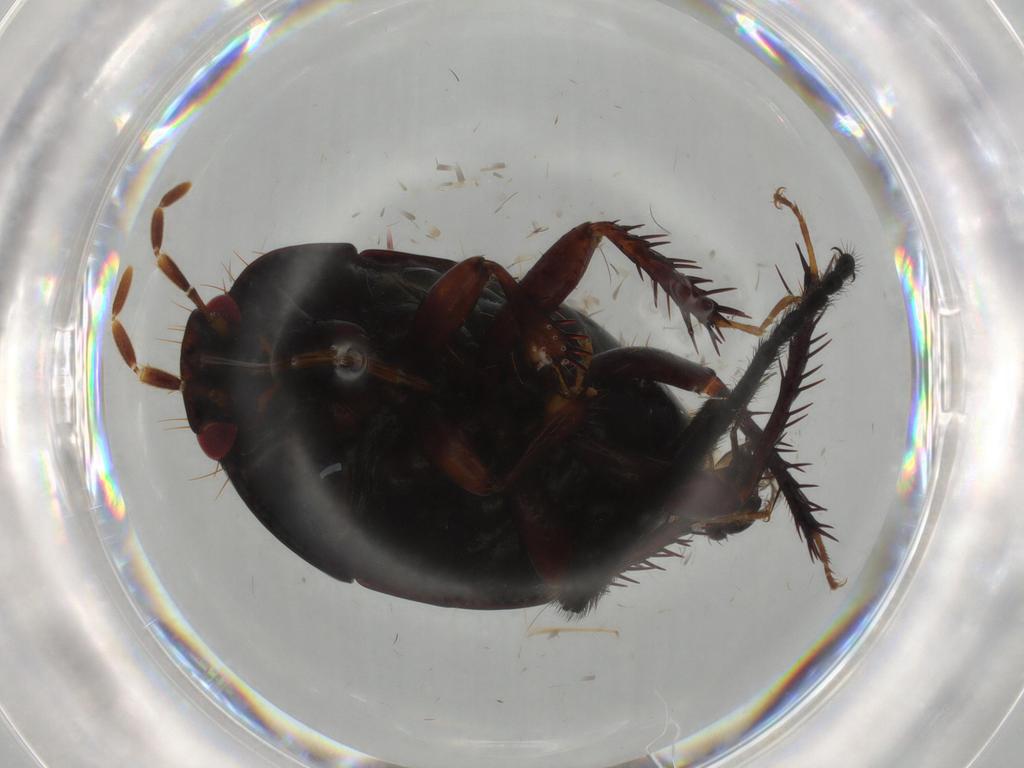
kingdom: Animalia
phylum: Arthropoda
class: Insecta
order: Hemiptera
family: Cydnidae
